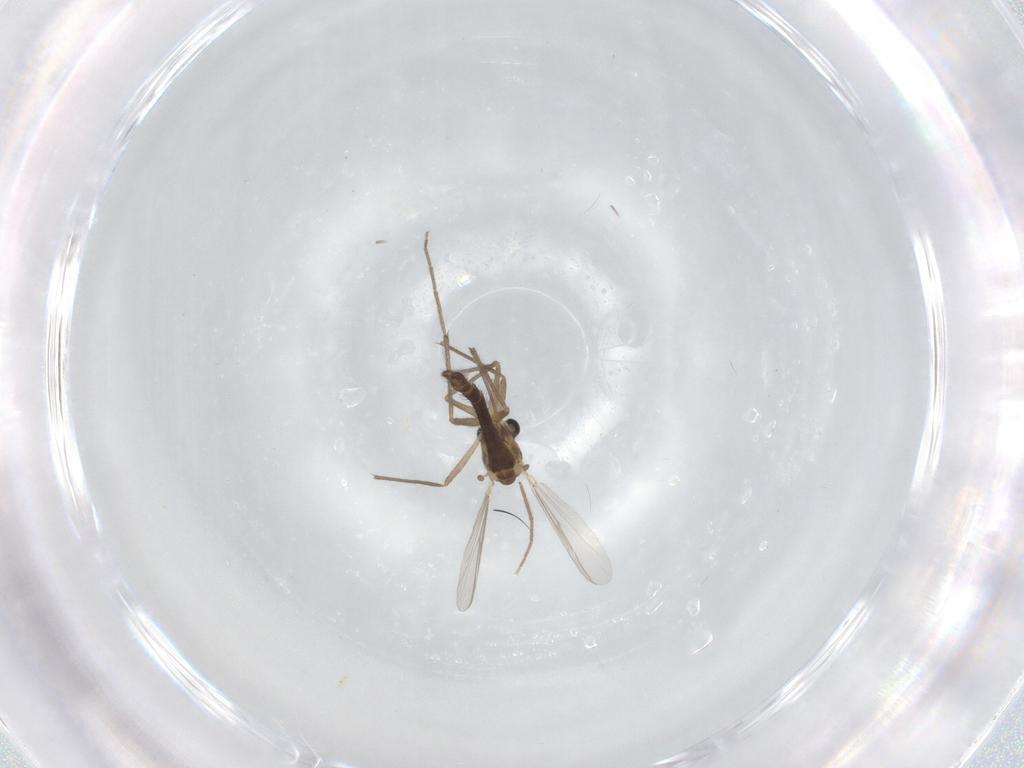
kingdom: Animalia
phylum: Arthropoda
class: Insecta
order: Diptera
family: Chironomidae
